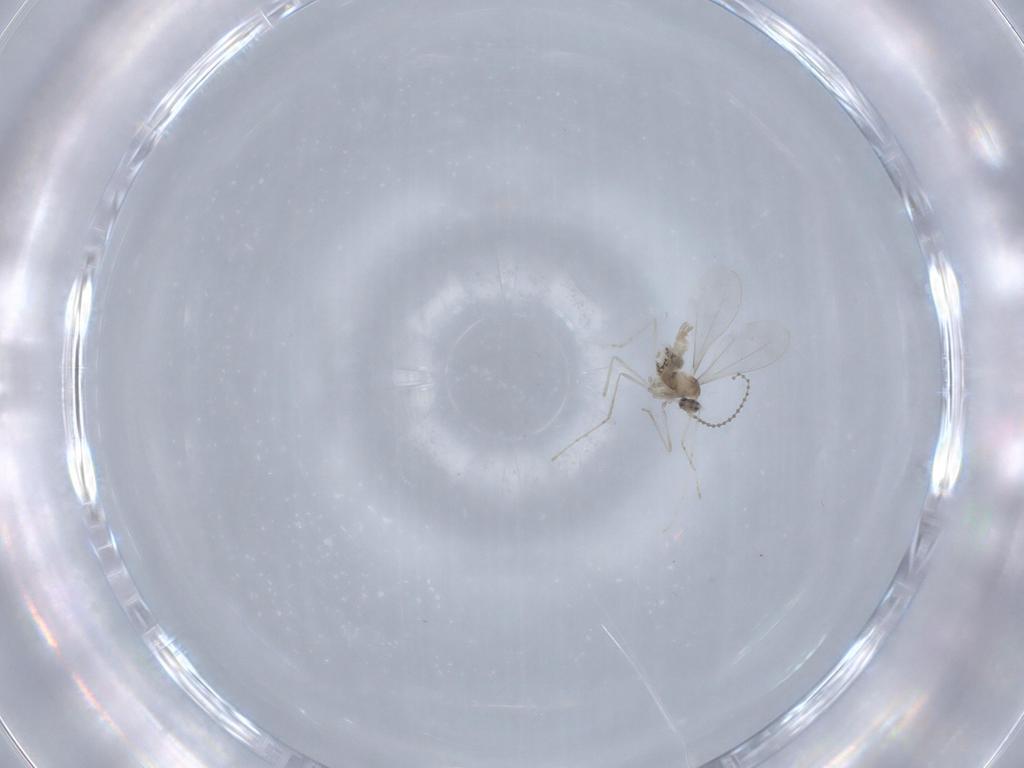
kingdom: Animalia
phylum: Arthropoda
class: Insecta
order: Diptera
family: Cecidomyiidae
